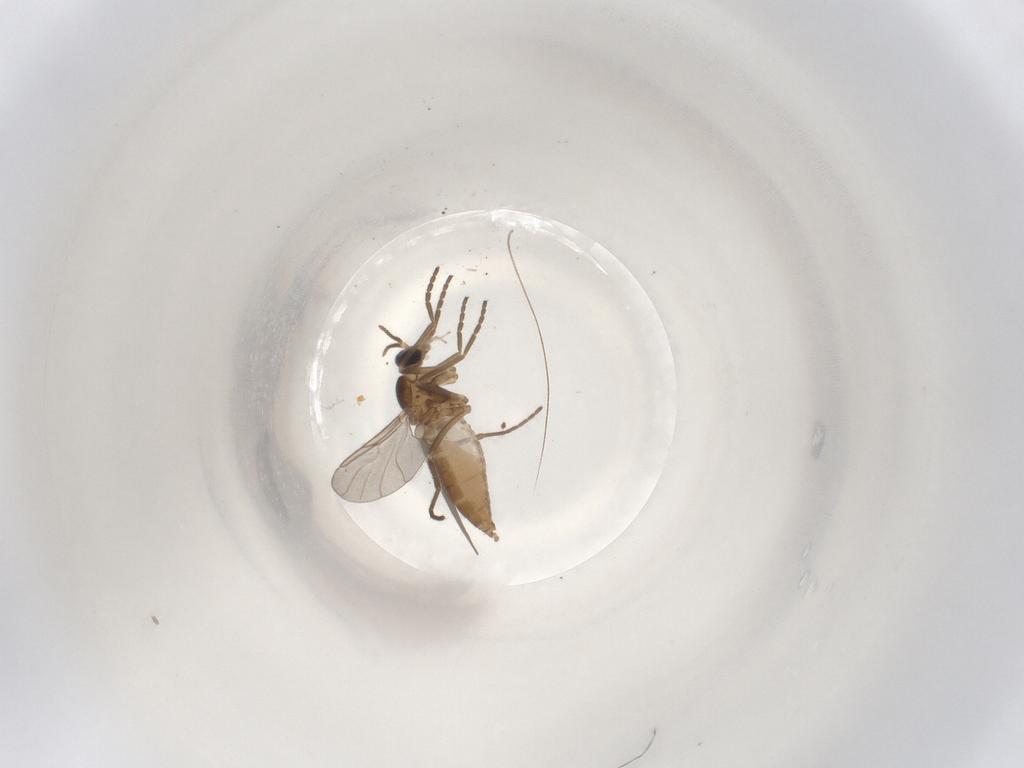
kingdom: Animalia
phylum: Arthropoda
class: Insecta
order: Diptera
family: Cecidomyiidae
